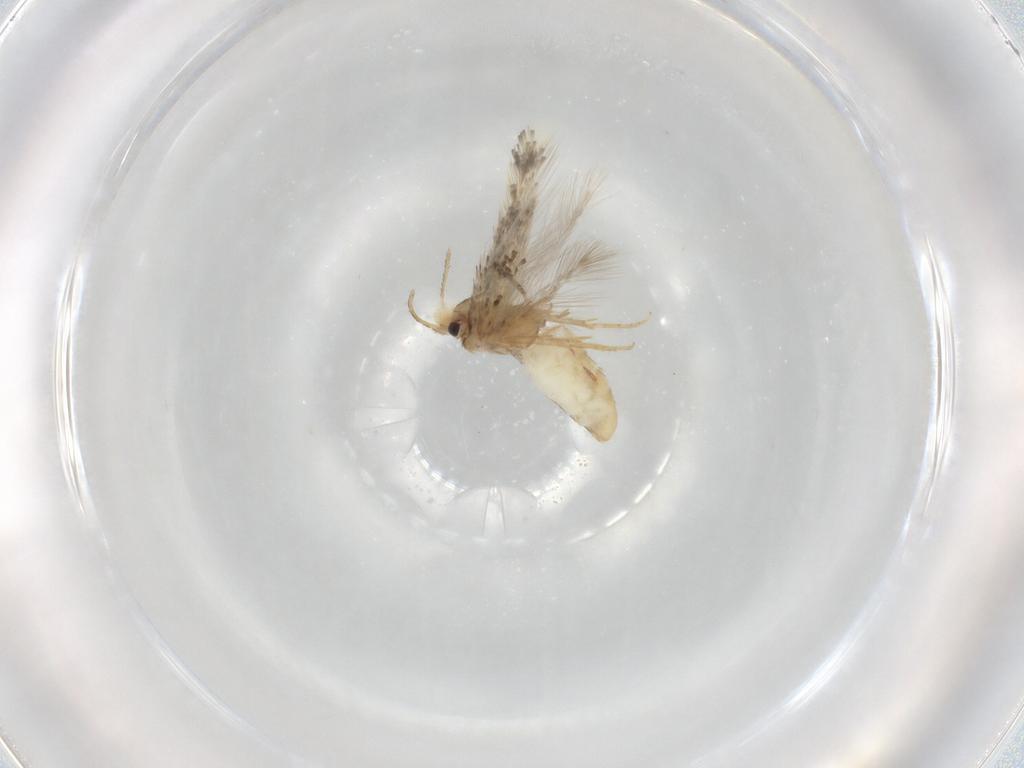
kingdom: Animalia
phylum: Arthropoda
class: Insecta
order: Lepidoptera
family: Nepticulidae
